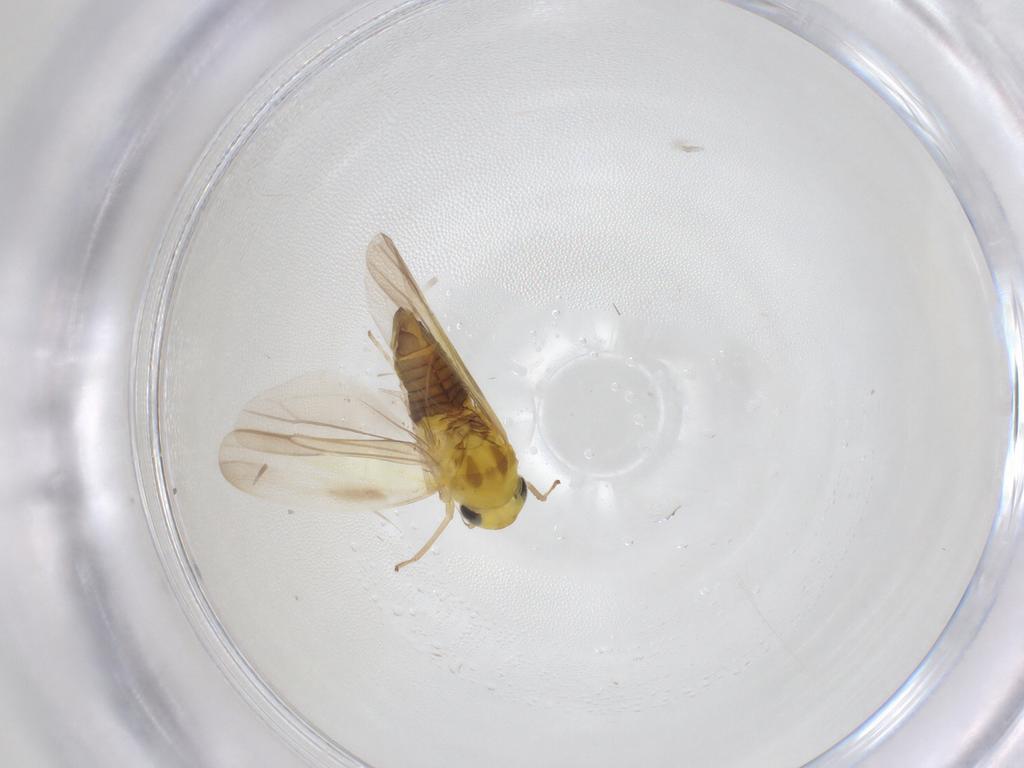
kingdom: Animalia
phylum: Arthropoda
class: Insecta
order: Hemiptera
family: Cicadellidae
